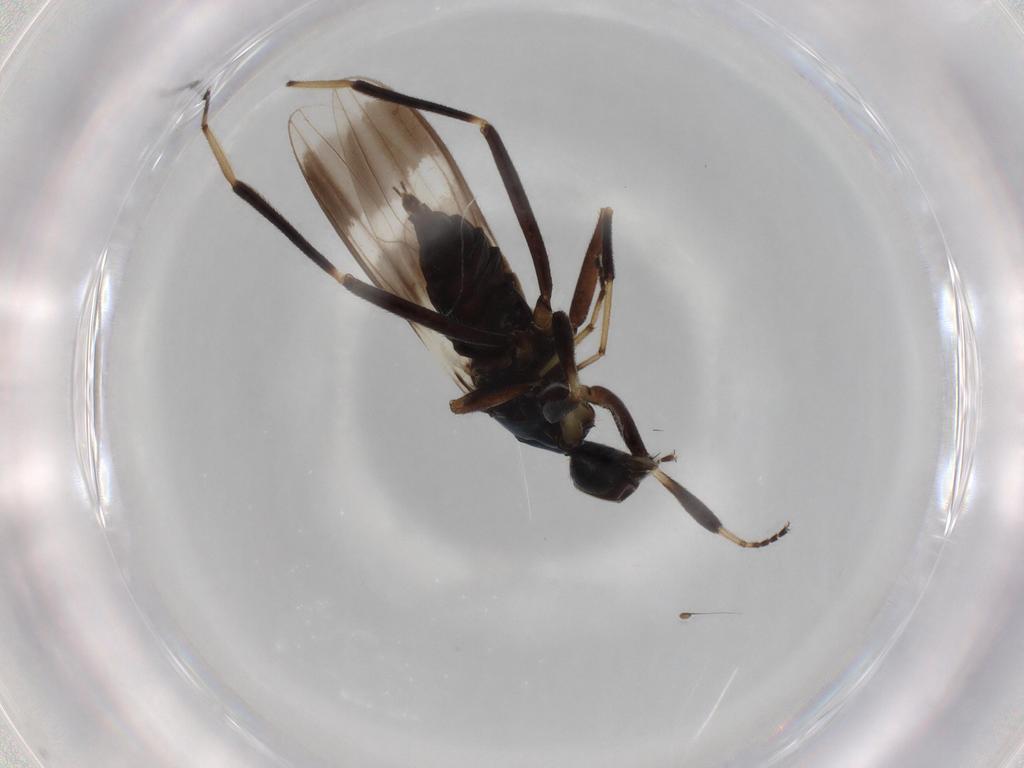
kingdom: Animalia
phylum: Arthropoda
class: Insecta
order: Diptera
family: Hybotidae
